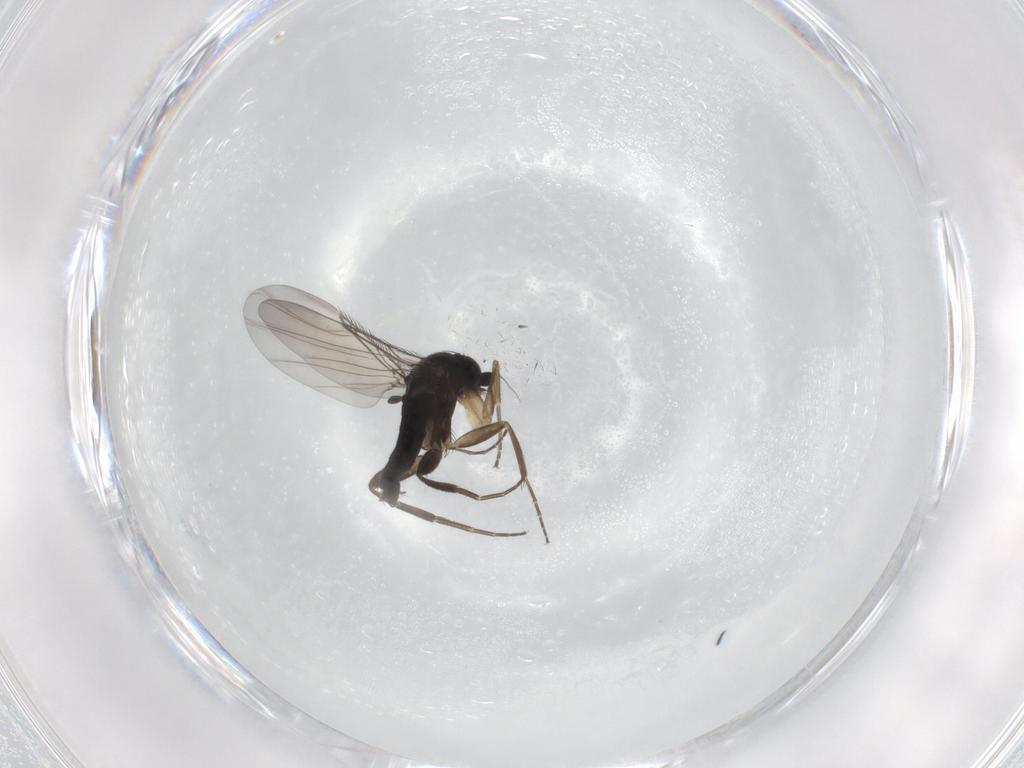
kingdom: Animalia
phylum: Arthropoda
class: Insecta
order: Diptera
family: Phoridae
